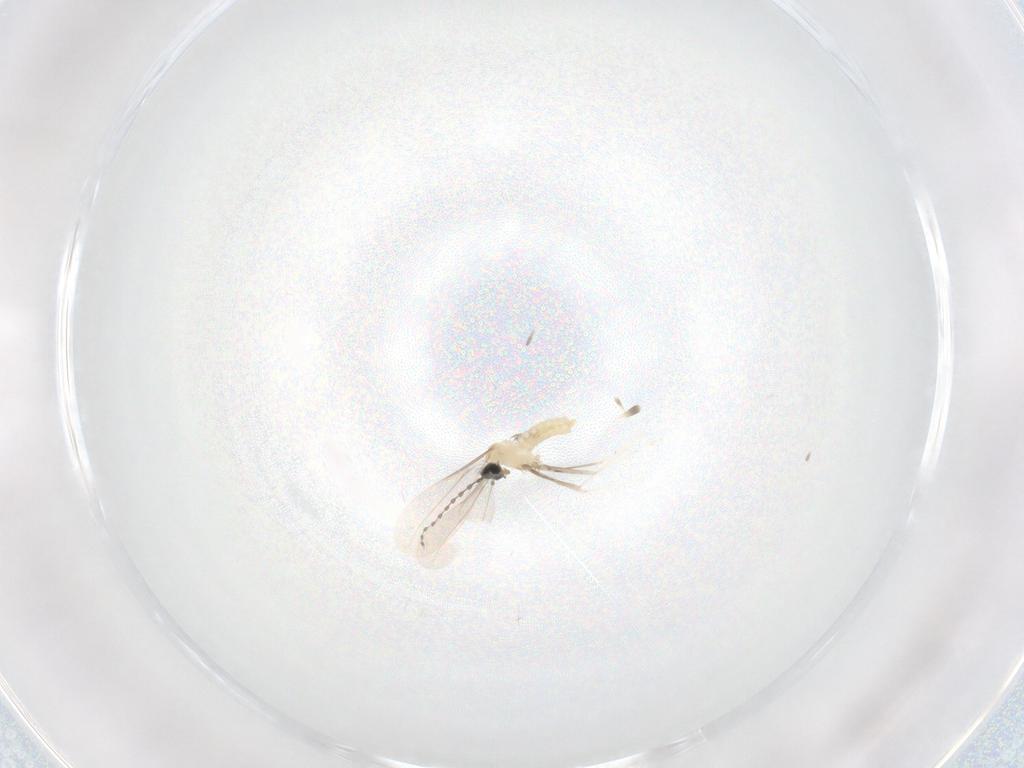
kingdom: Animalia
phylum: Arthropoda
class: Insecta
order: Diptera
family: Cecidomyiidae
